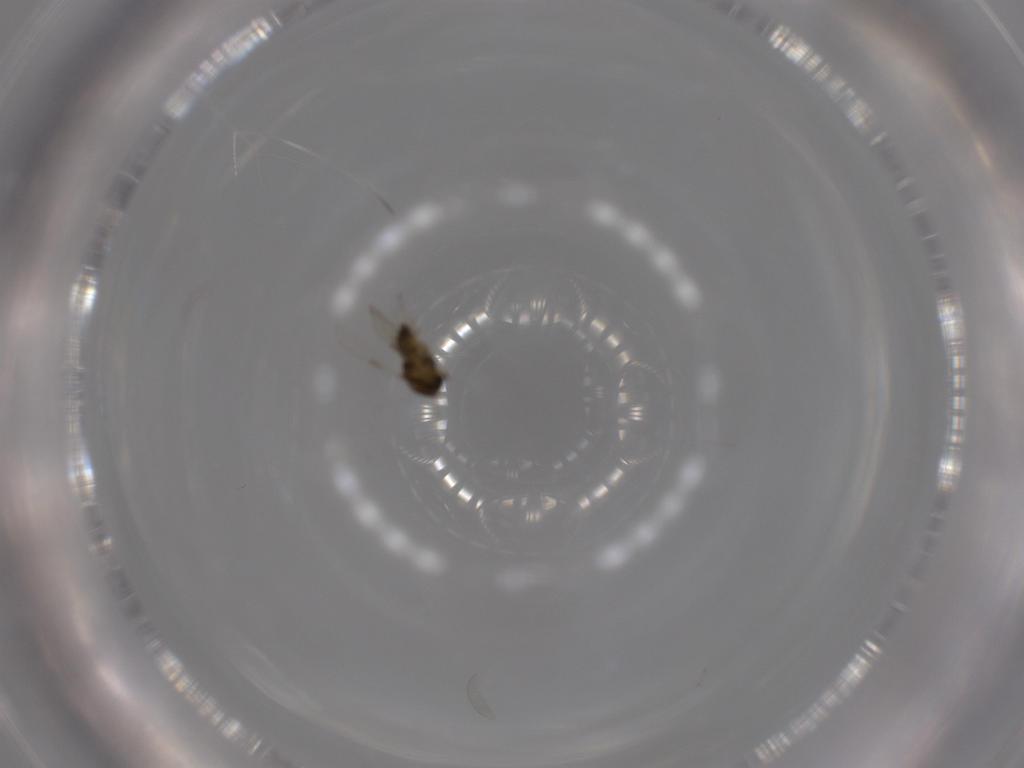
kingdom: Animalia
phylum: Arthropoda
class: Insecta
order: Diptera
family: Chironomidae
